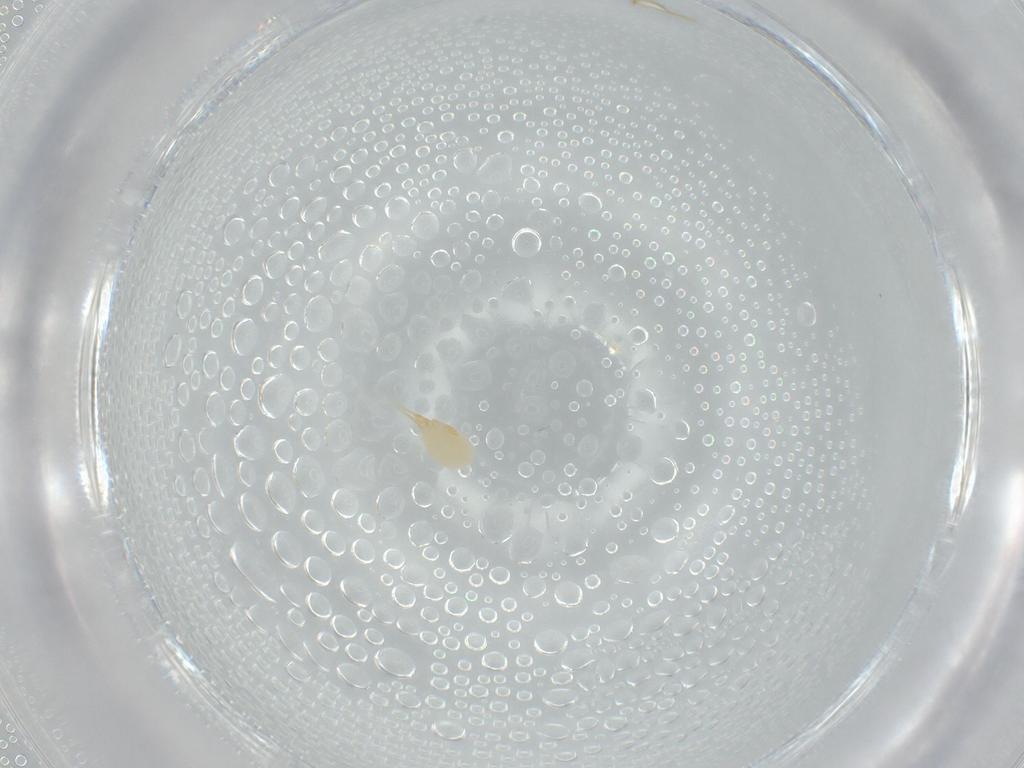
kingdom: Animalia
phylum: Arthropoda
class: Arachnida
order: Trombidiformes
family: Eupodidae
